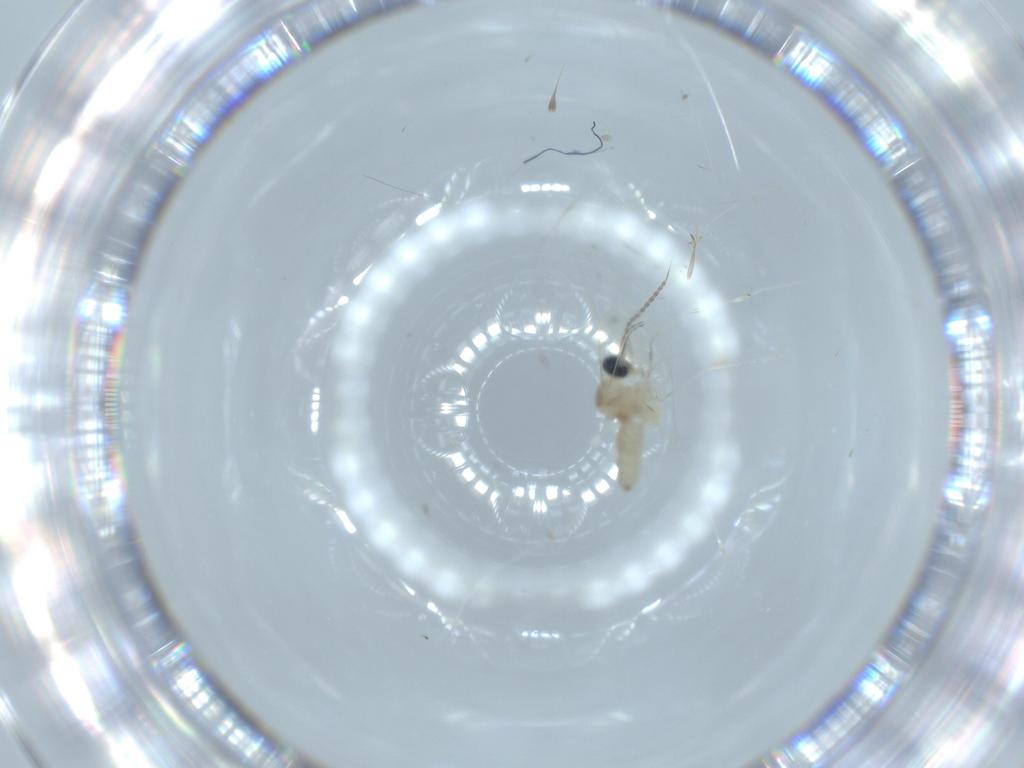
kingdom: Animalia
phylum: Arthropoda
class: Insecta
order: Diptera
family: Cecidomyiidae
